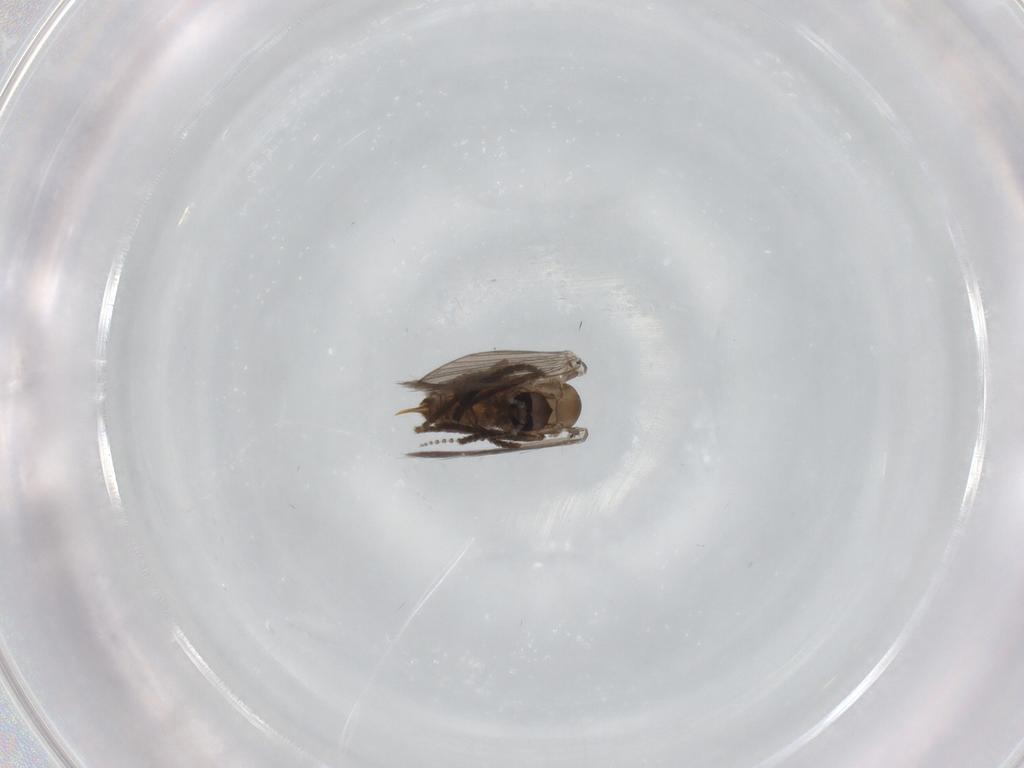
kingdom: Animalia
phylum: Arthropoda
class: Insecta
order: Diptera
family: Sciaridae
